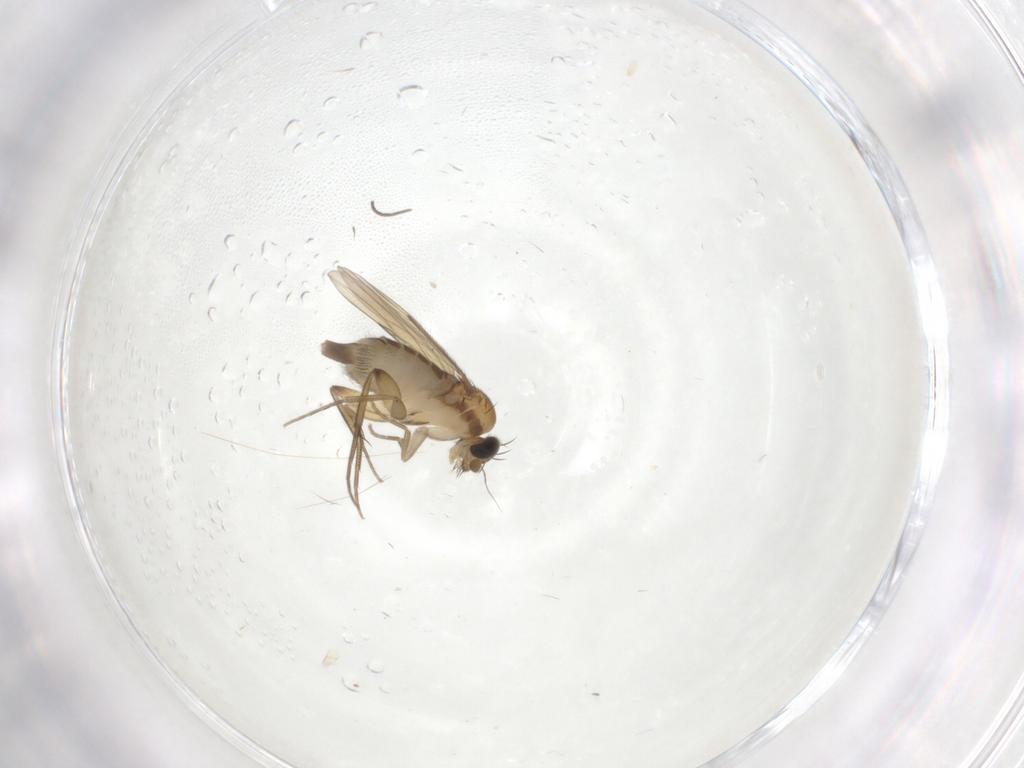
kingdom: Animalia
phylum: Arthropoda
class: Insecta
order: Diptera
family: Phoridae
